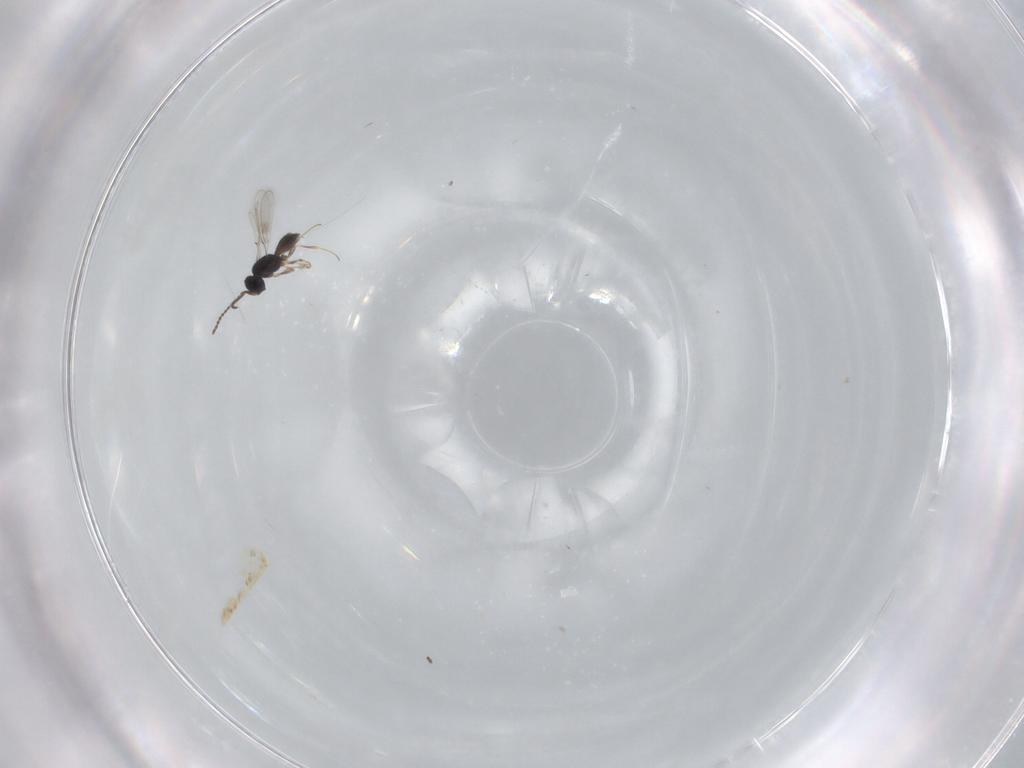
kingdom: Animalia
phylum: Arthropoda
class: Insecta
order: Hymenoptera
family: Scelionidae
